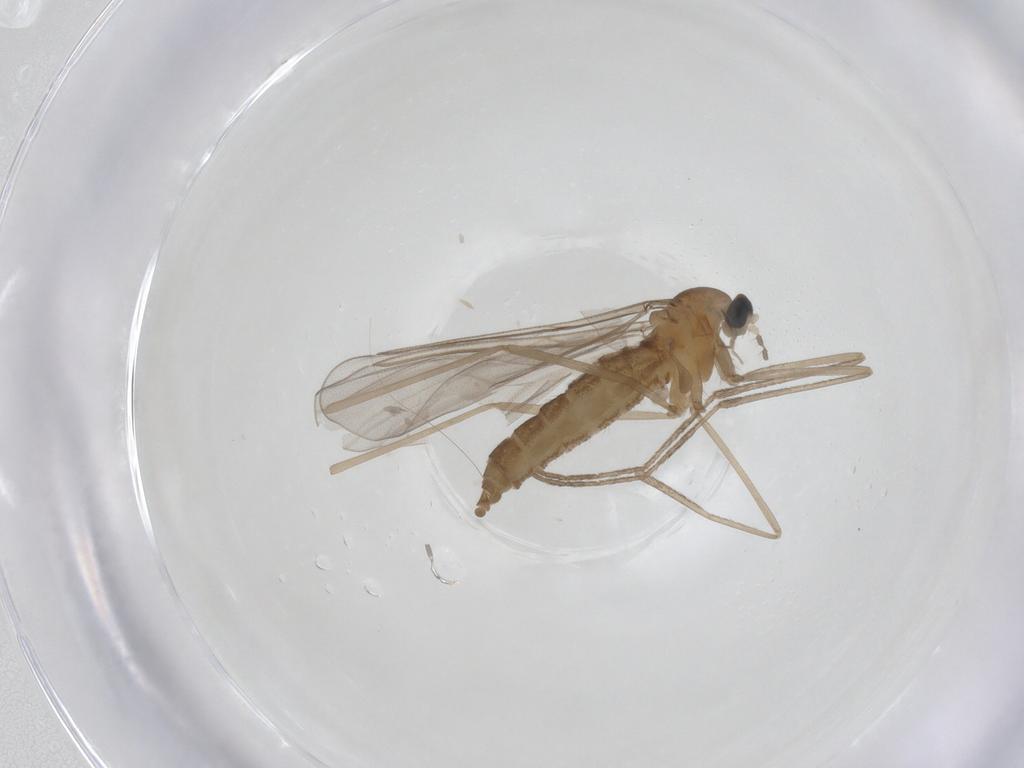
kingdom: Animalia
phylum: Arthropoda
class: Insecta
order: Diptera
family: Cecidomyiidae
